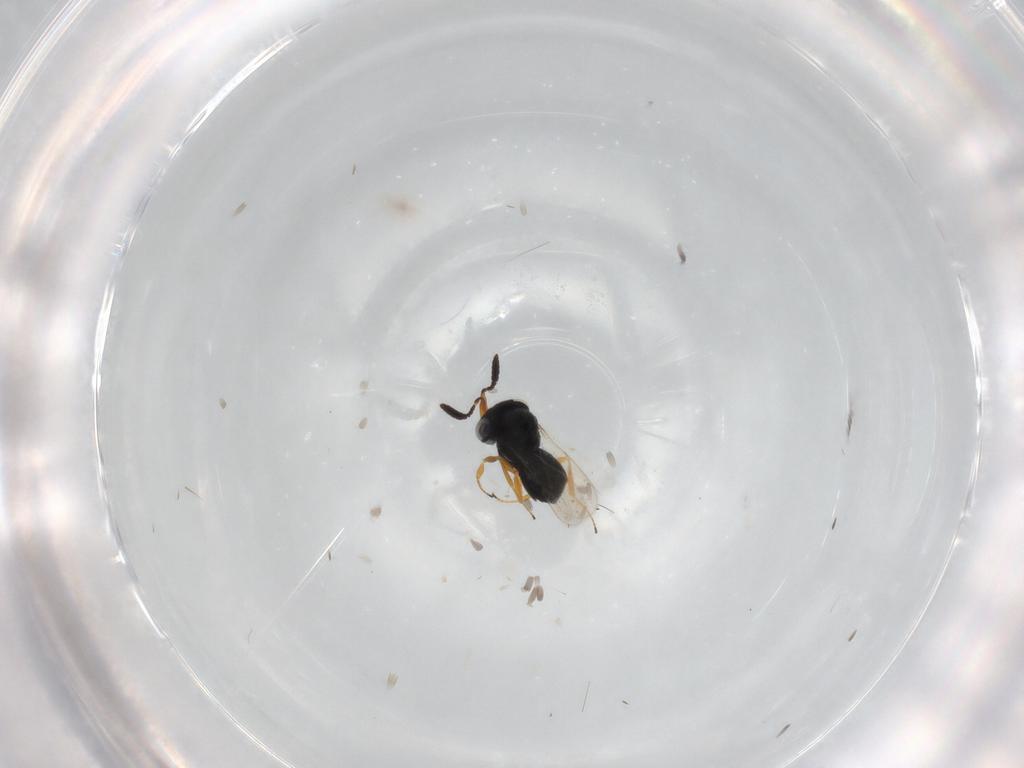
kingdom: Animalia
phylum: Arthropoda
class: Insecta
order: Hymenoptera
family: Scelionidae
